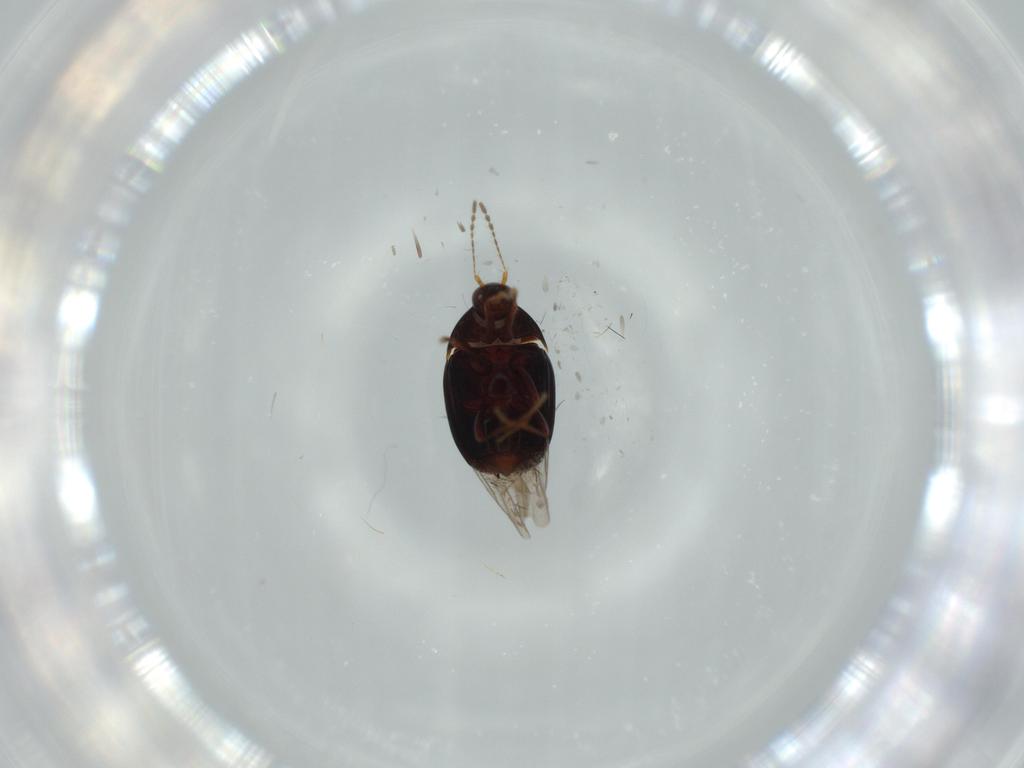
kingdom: Animalia
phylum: Arthropoda
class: Insecta
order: Coleoptera
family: Staphylinidae
